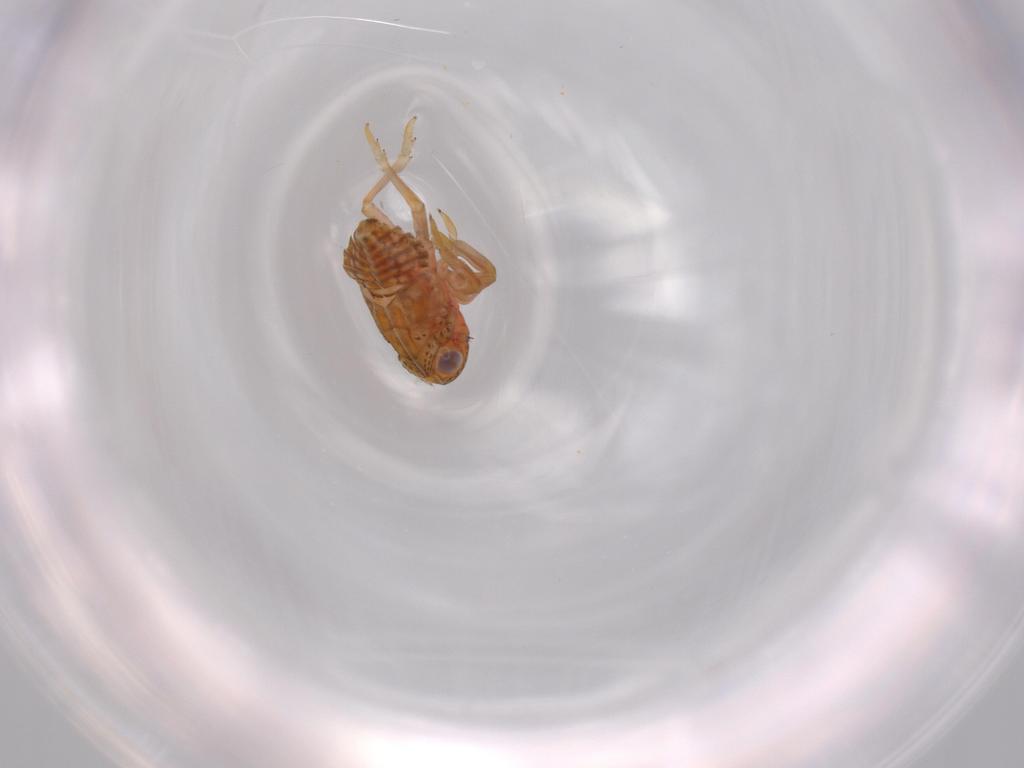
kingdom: Animalia
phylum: Arthropoda
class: Insecta
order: Hemiptera
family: Issidae
